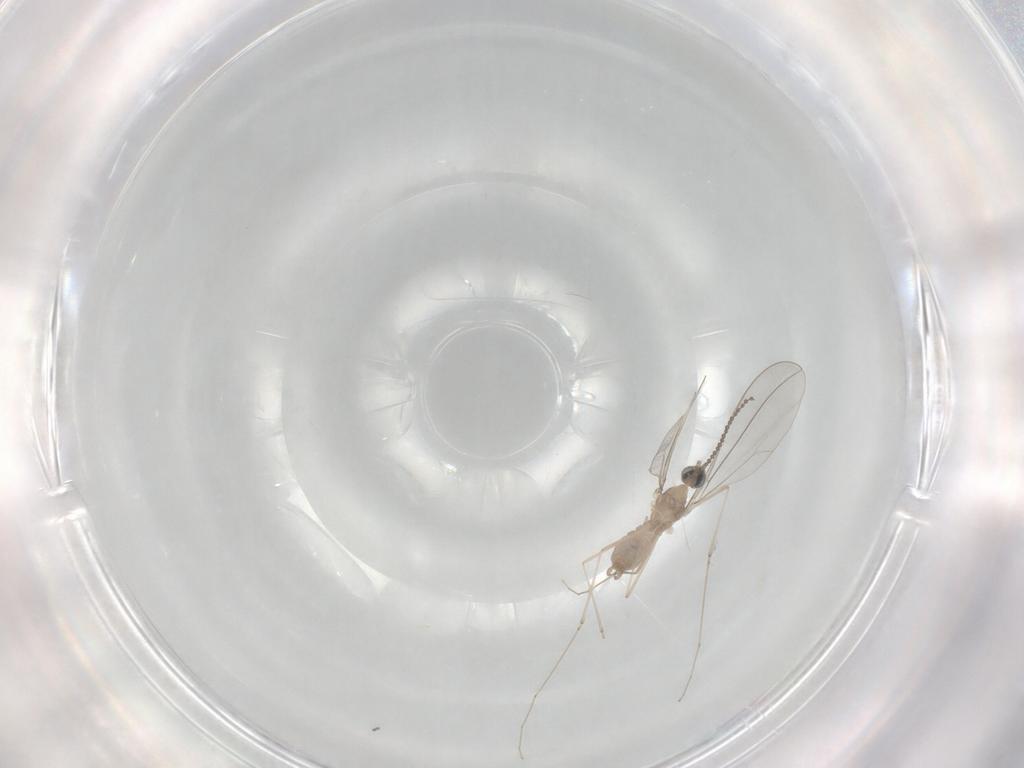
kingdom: Animalia
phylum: Arthropoda
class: Insecta
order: Diptera
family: Cecidomyiidae
